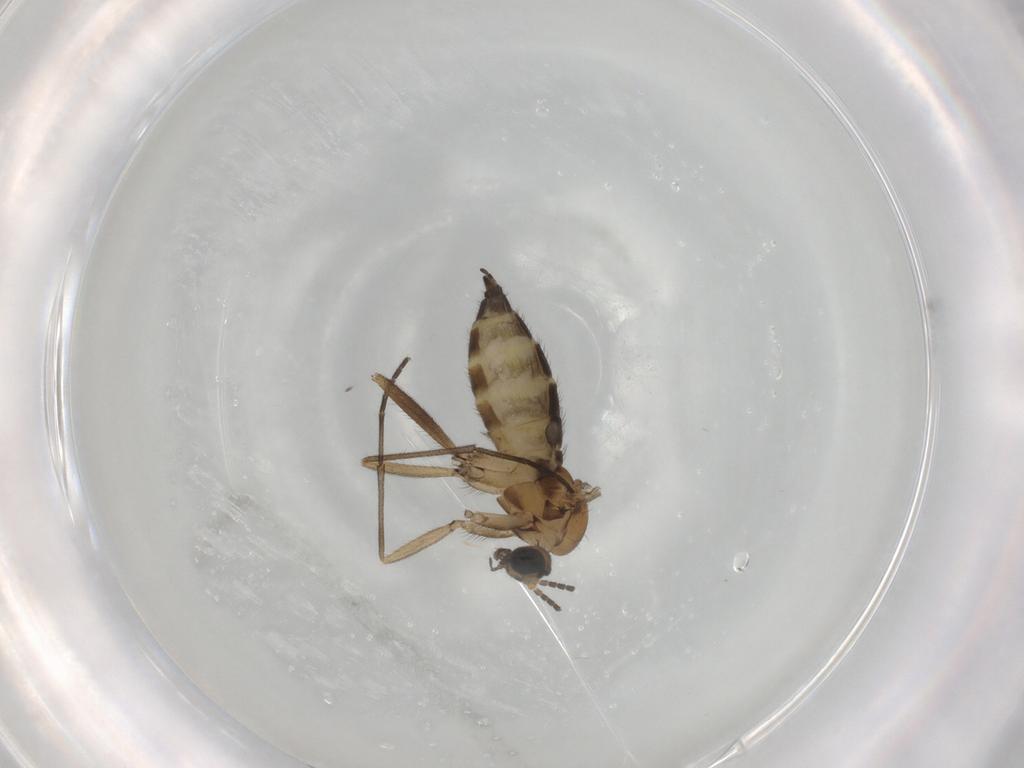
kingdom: Animalia
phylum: Arthropoda
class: Insecta
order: Diptera
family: Sciaridae
